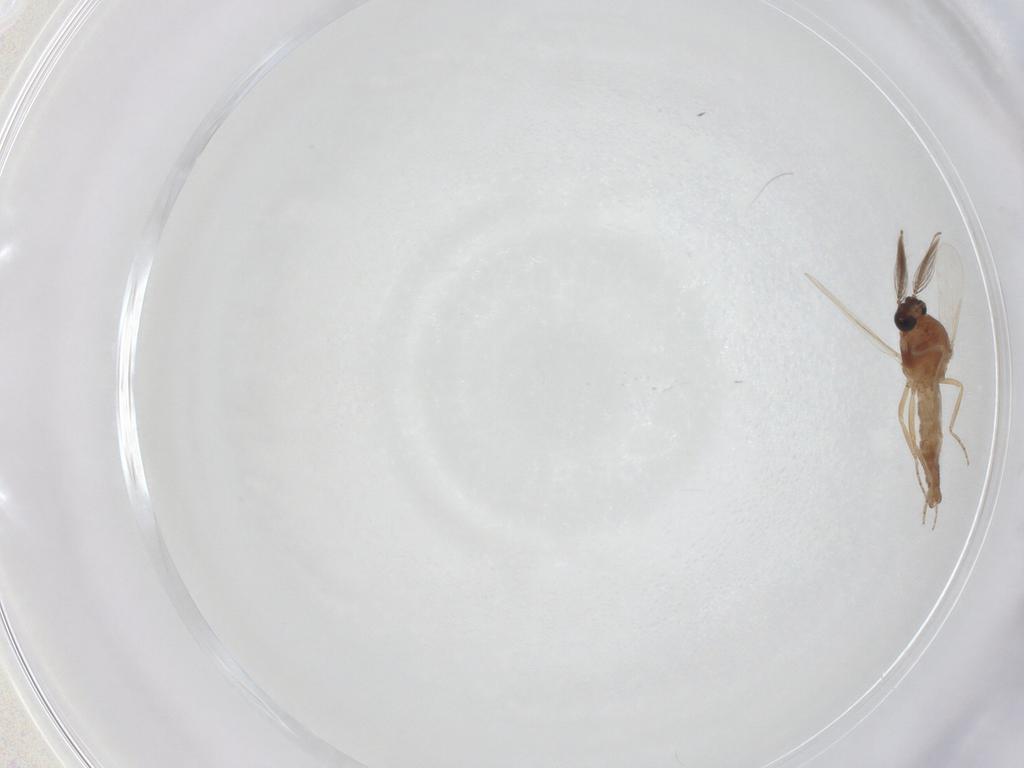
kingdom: Animalia
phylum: Arthropoda
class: Insecta
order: Diptera
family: Ceratopogonidae
